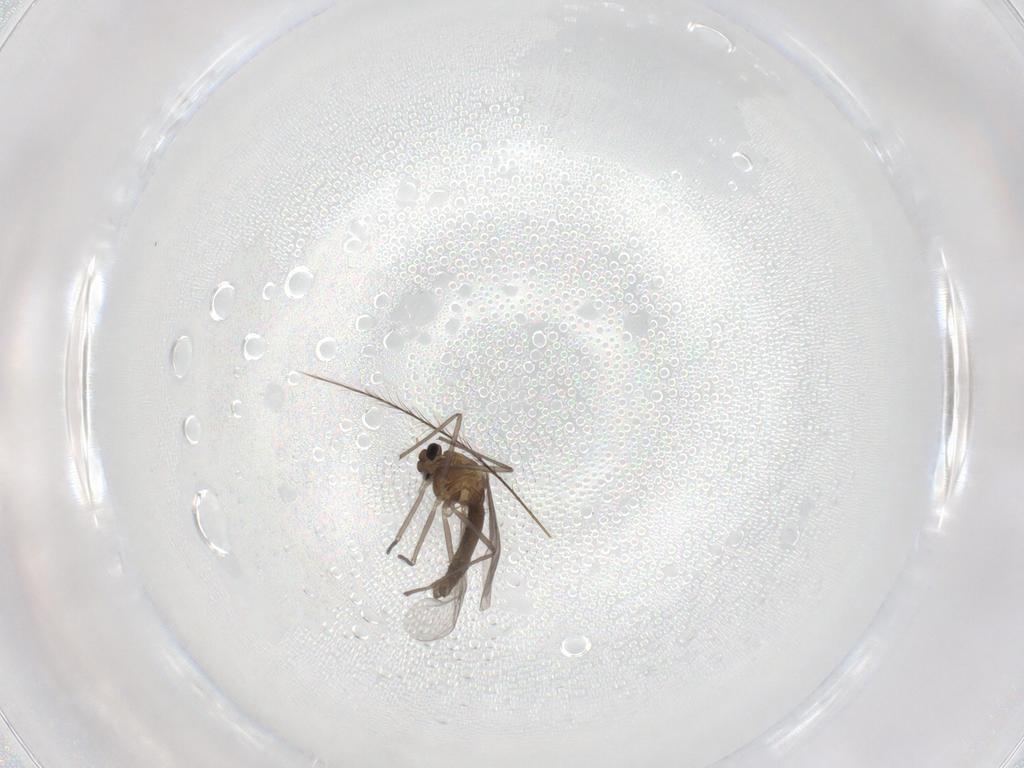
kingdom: Animalia
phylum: Arthropoda
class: Insecta
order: Diptera
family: Chironomidae
